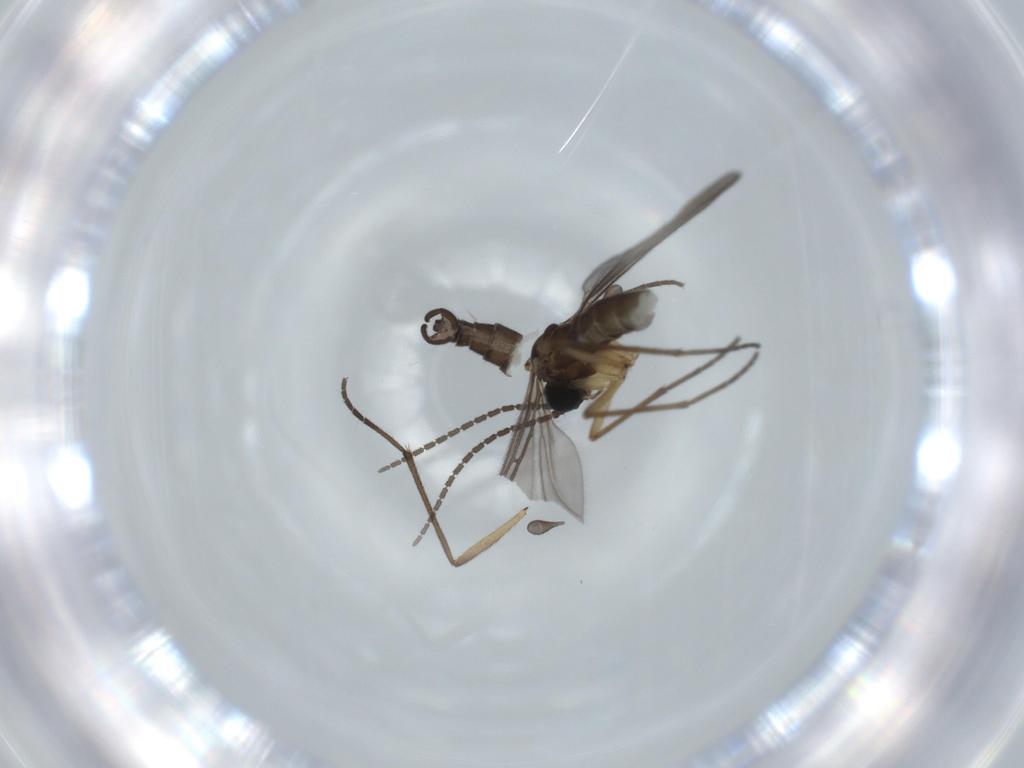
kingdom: Animalia
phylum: Arthropoda
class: Insecta
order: Diptera
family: Sciaridae
